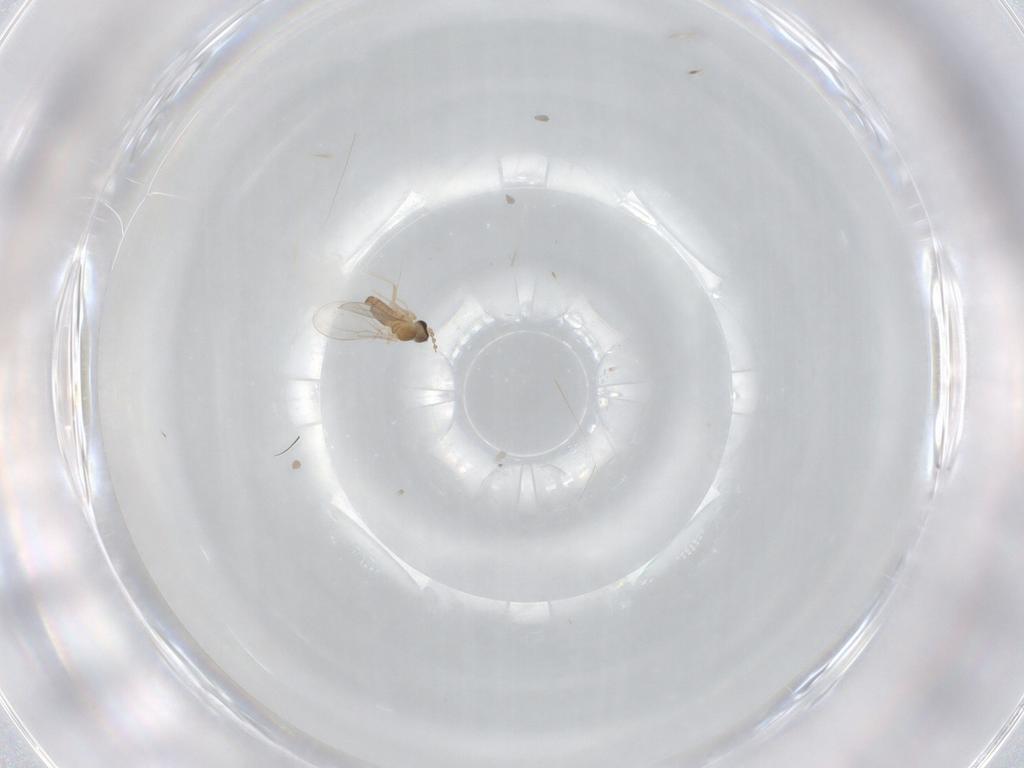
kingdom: Animalia
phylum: Arthropoda
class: Insecta
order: Diptera
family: Cecidomyiidae
